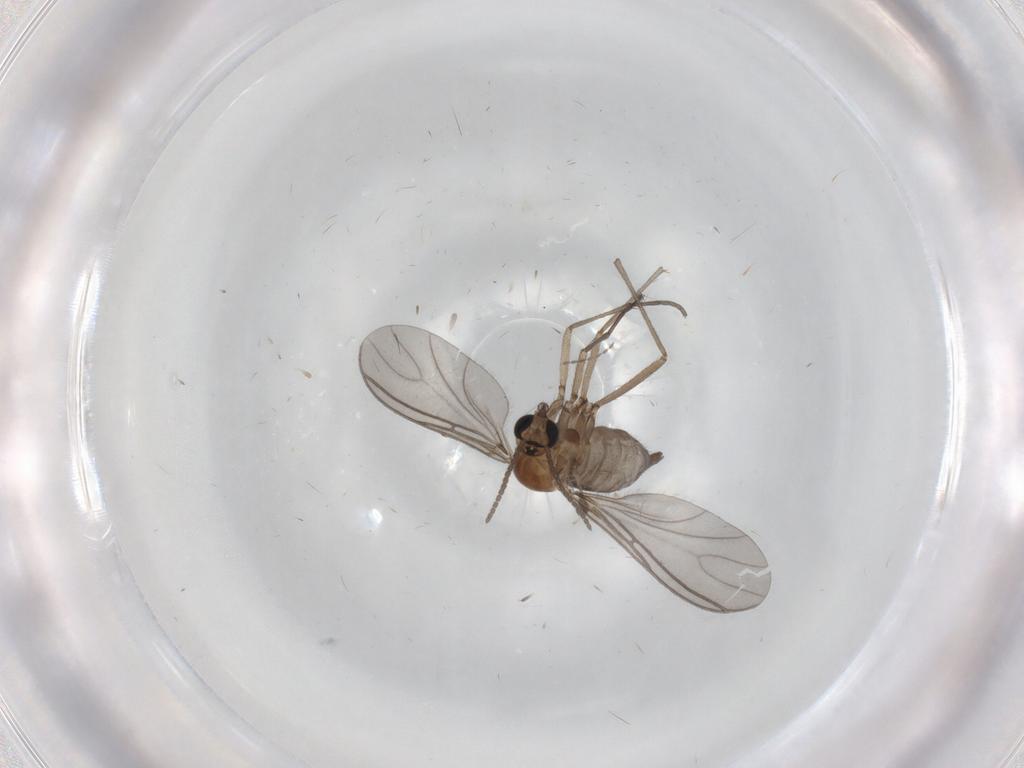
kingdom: Animalia
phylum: Arthropoda
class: Insecta
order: Diptera
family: Sciaridae
